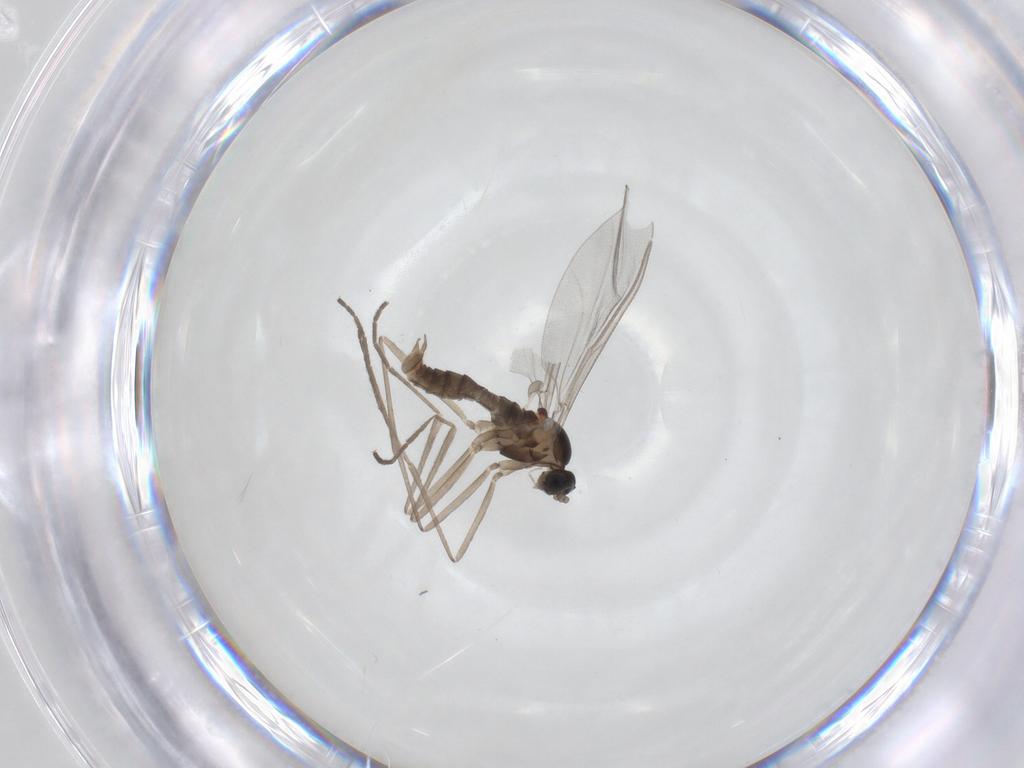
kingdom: Animalia
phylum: Arthropoda
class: Insecta
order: Diptera
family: Cecidomyiidae
